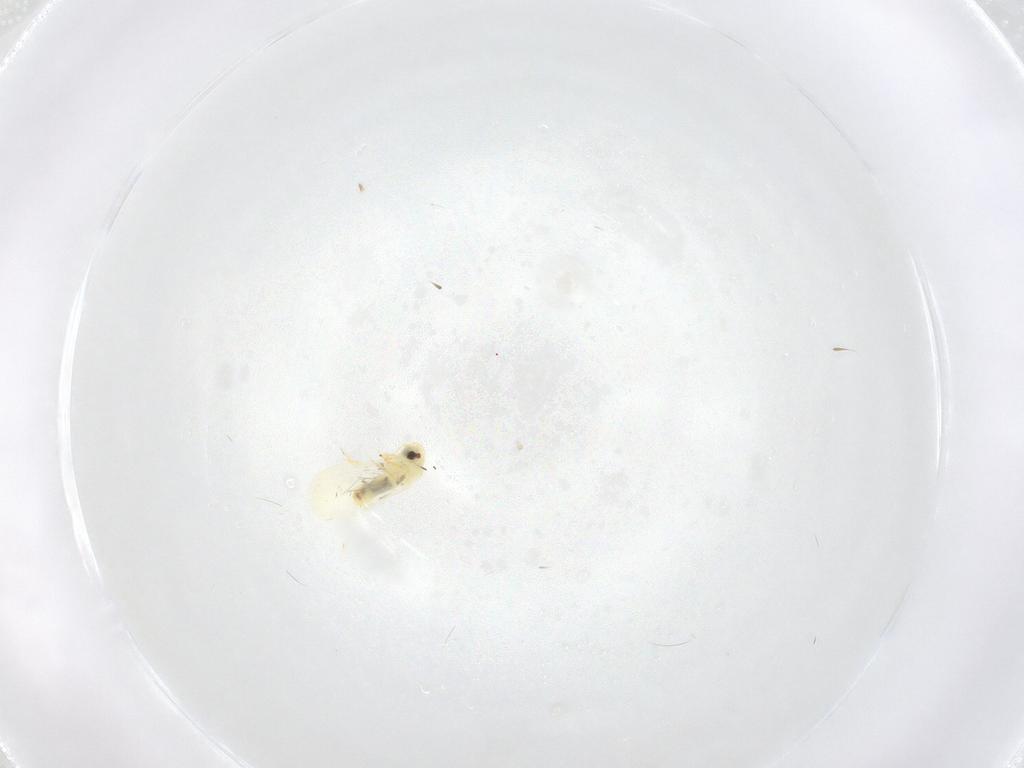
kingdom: Animalia
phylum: Arthropoda
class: Insecta
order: Hemiptera
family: Aleyrodidae
